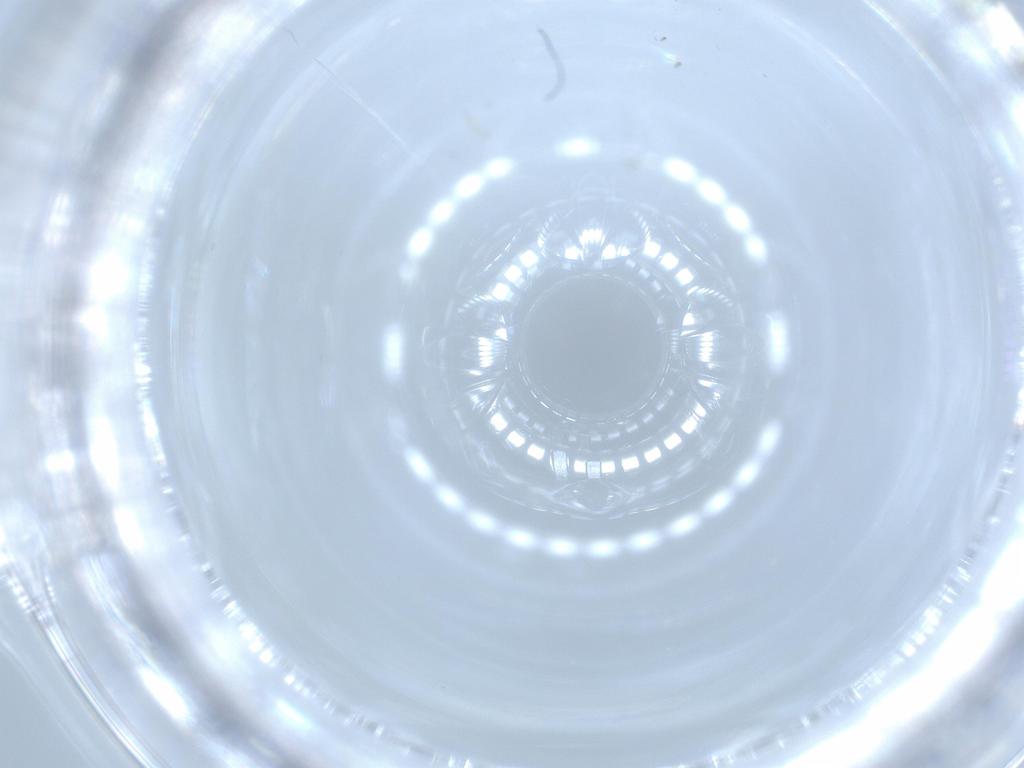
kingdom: Animalia
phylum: Arthropoda
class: Insecta
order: Diptera
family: Phoridae
